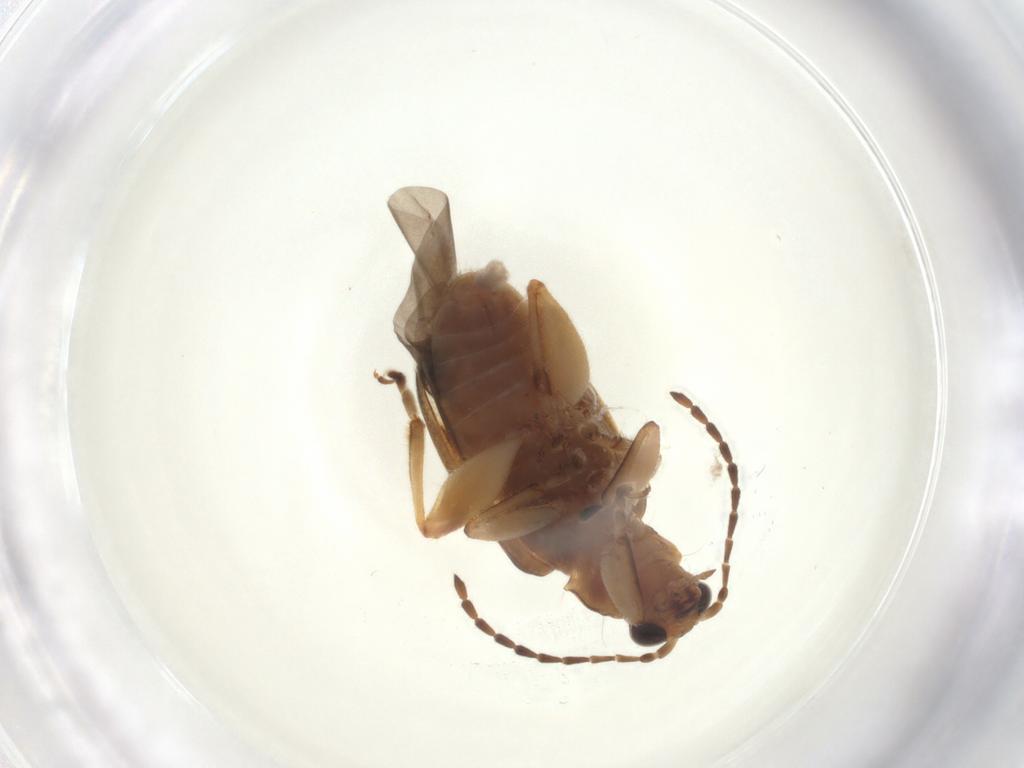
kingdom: Animalia
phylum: Arthropoda
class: Insecta
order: Coleoptera
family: Chrysomelidae
